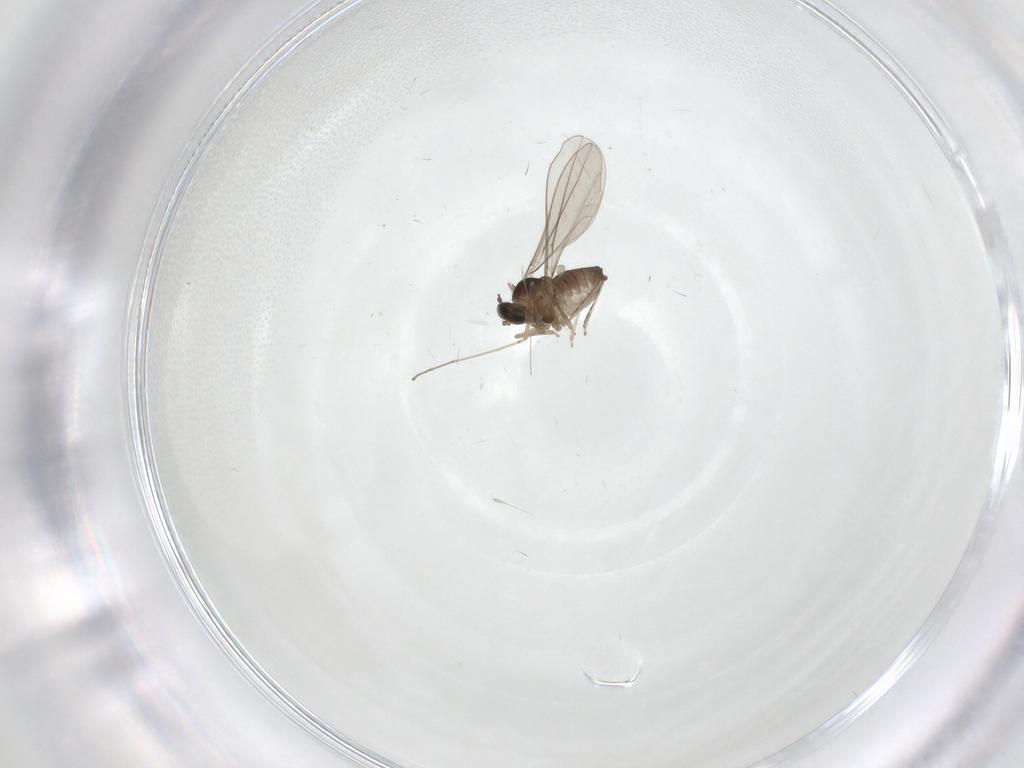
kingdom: Animalia
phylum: Arthropoda
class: Insecta
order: Diptera
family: Cecidomyiidae
